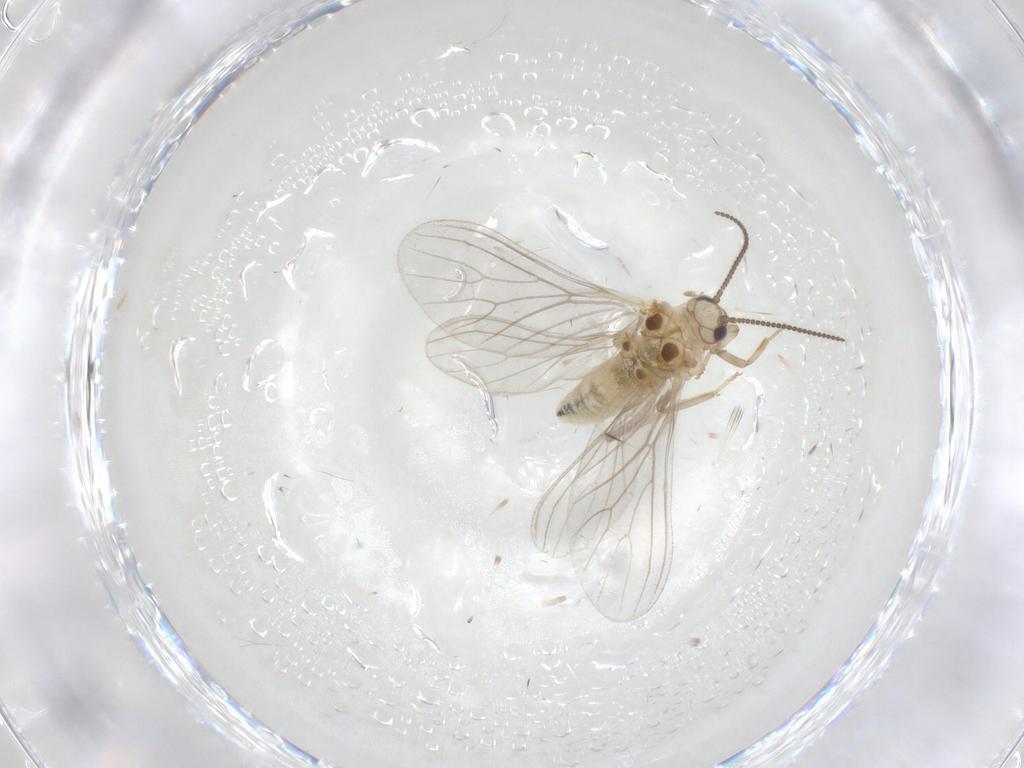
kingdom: Animalia
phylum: Arthropoda
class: Insecta
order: Neuroptera
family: Coniopterygidae
